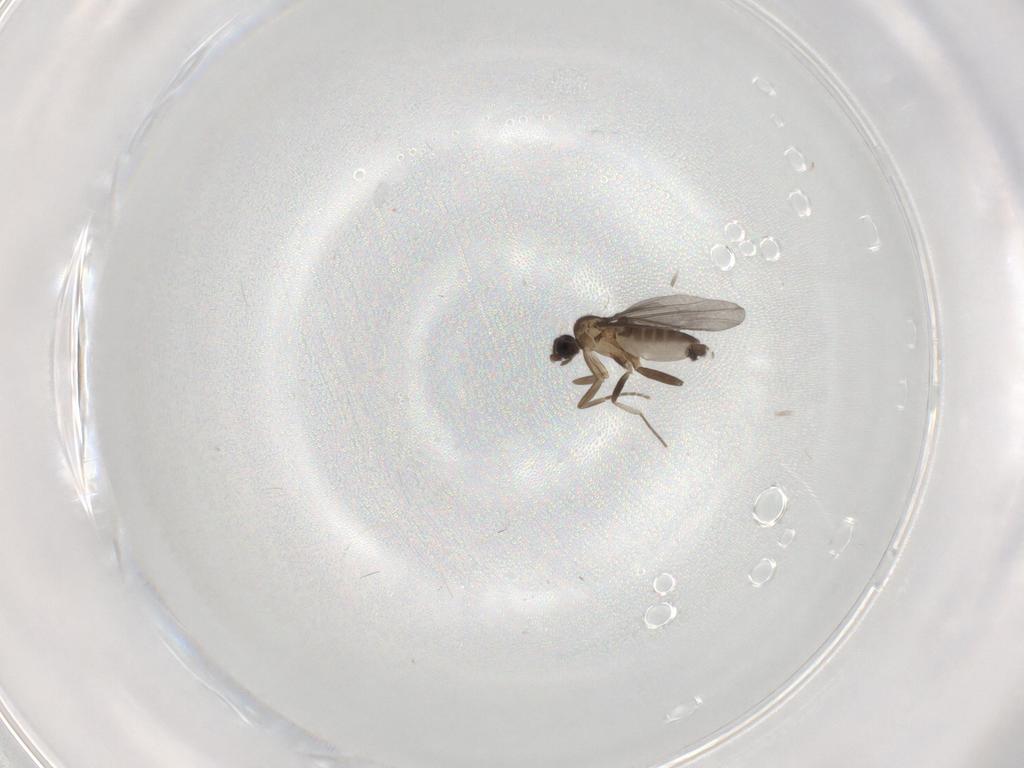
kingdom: Animalia
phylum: Arthropoda
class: Insecta
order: Diptera
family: Phoridae
